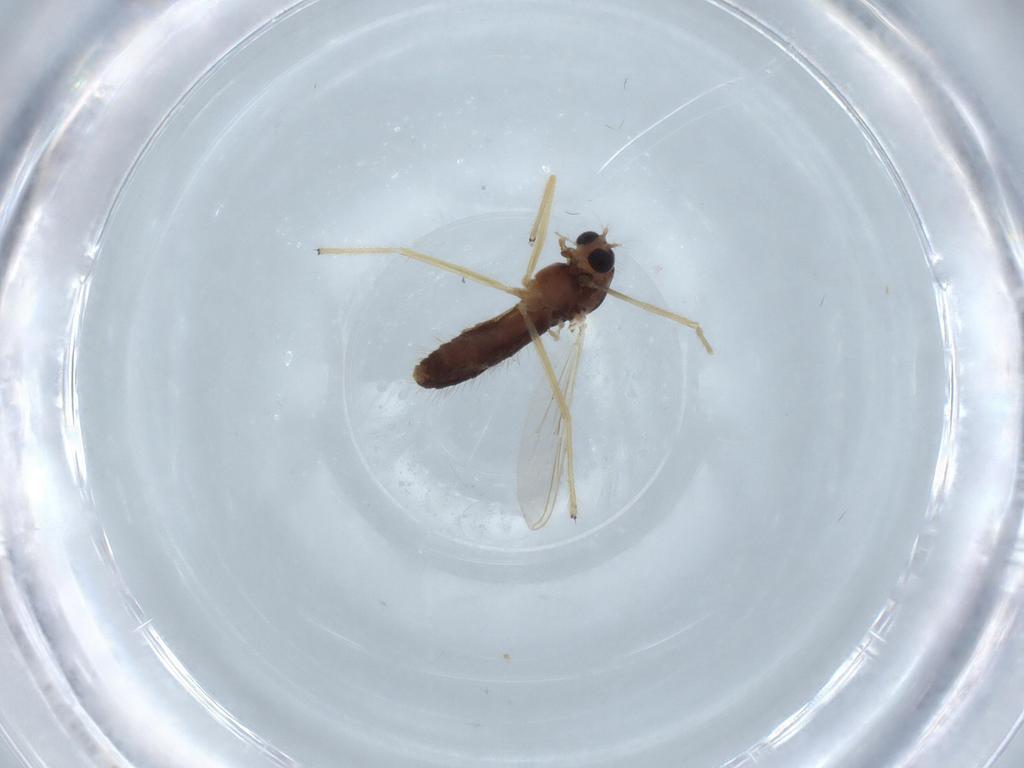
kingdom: Animalia
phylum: Arthropoda
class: Insecta
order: Diptera
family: Chironomidae
